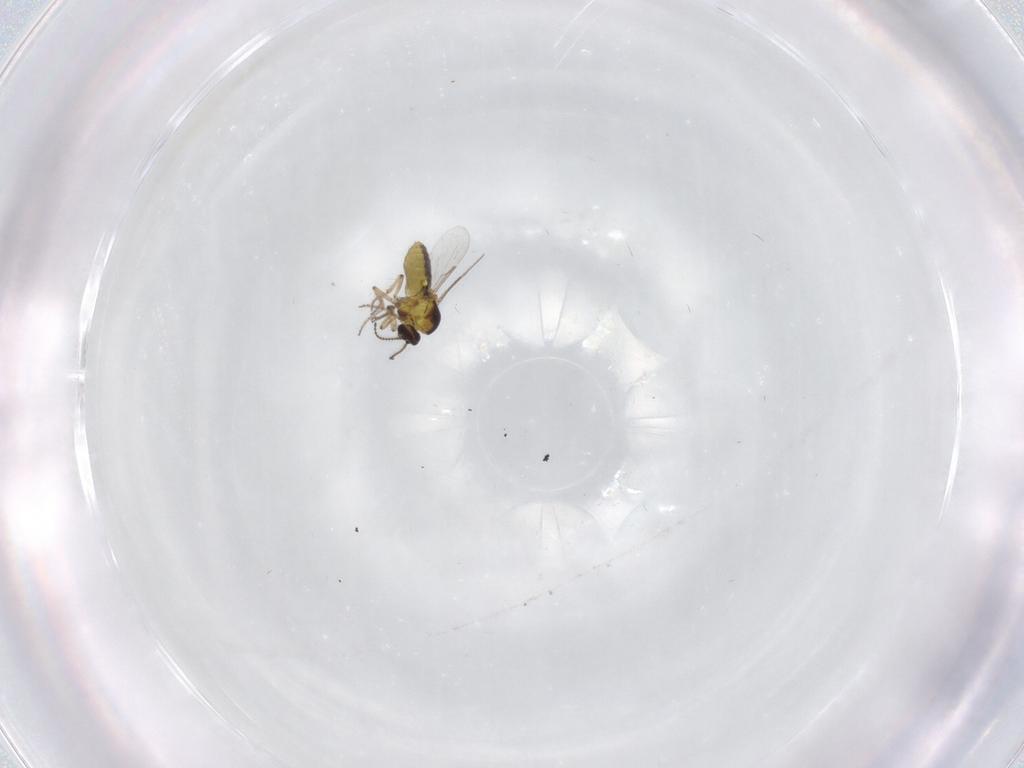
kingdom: Animalia
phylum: Arthropoda
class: Insecta
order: Diptera
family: Ceratopogonidae
